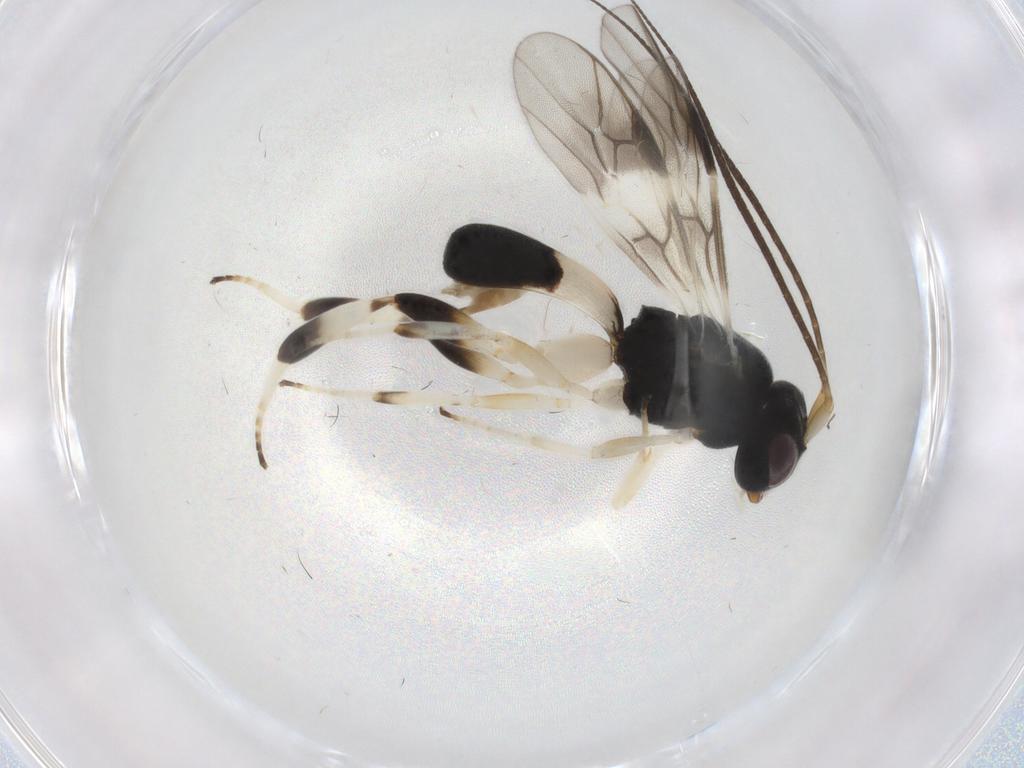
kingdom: Animalia
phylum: Arthropoda
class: Insecta
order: Hymenoptera
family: Braconidae
